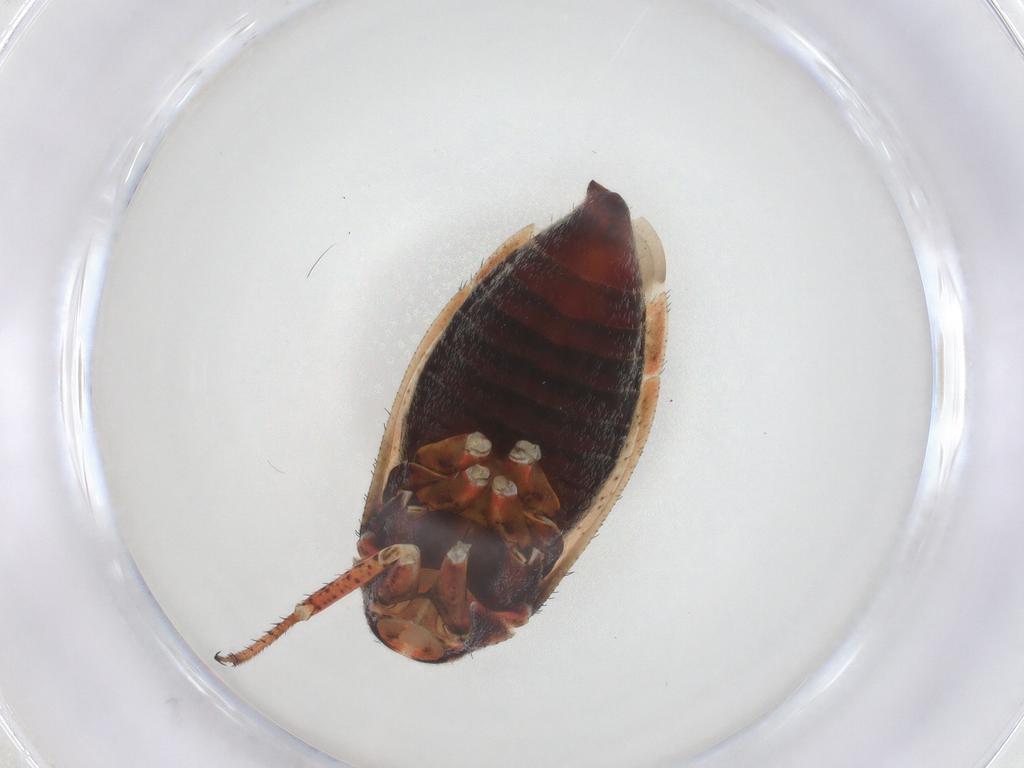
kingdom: Animalia
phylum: Arthropoda
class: Insecta
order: Hemiptera
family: Miridae
